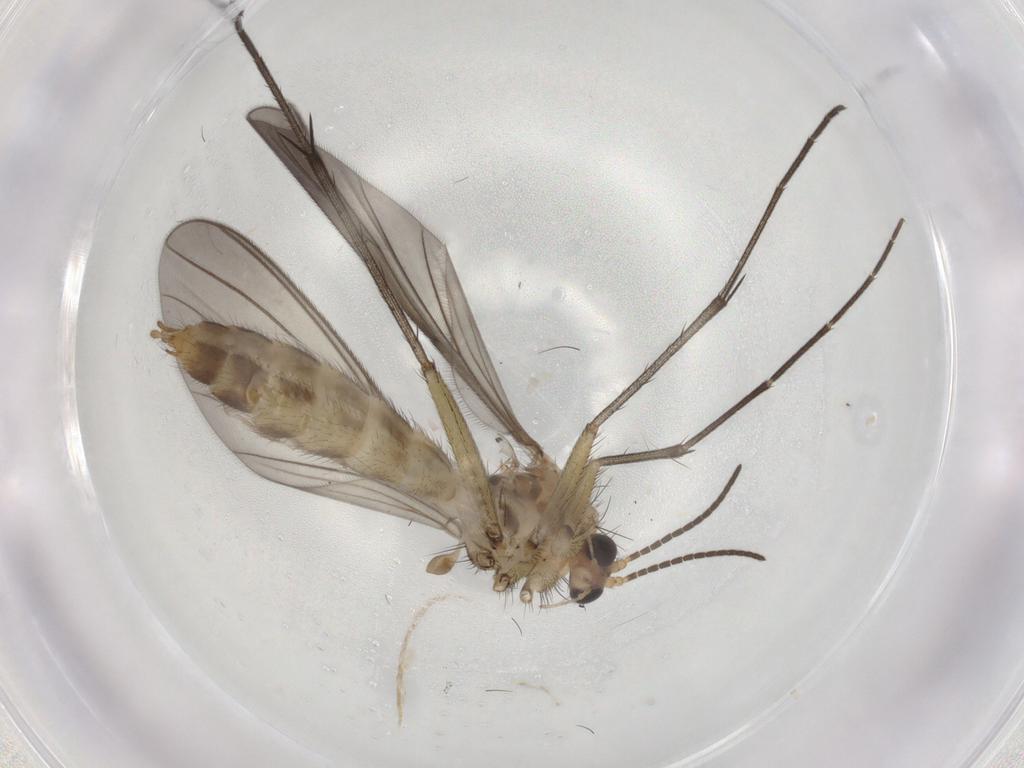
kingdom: Animalia
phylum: Arthropoda
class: Insecta
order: Diptera
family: Mycetophilidae
